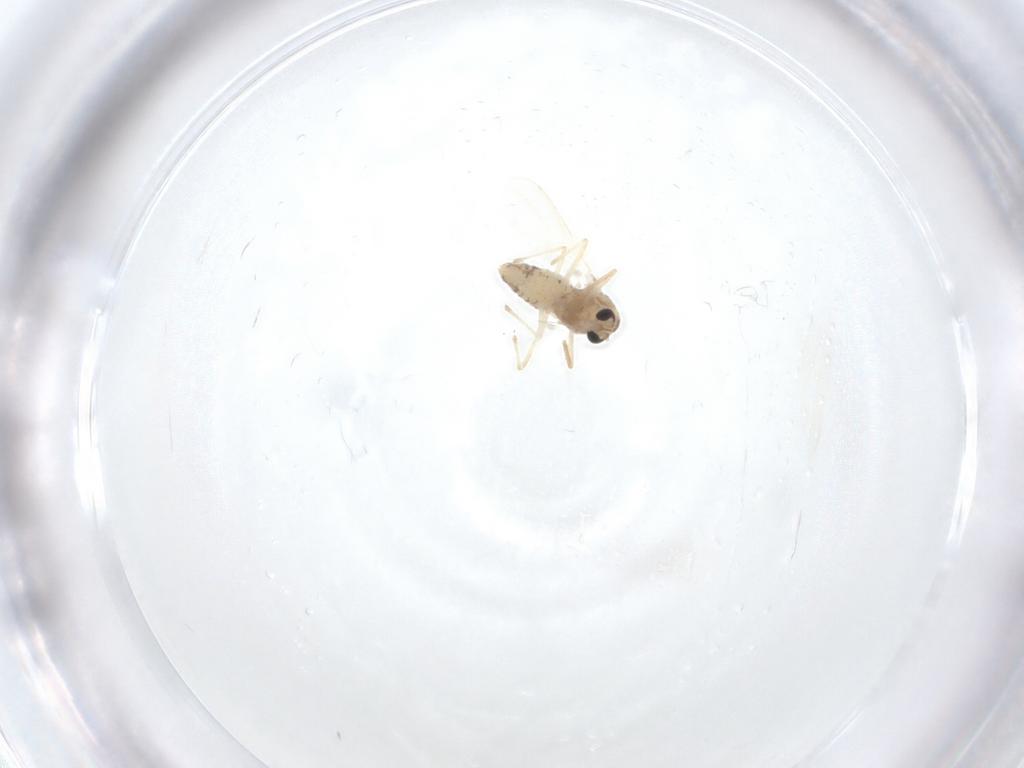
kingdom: Animalia
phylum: Arthropoda
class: Insecta
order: Diptera
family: Chironomidae
